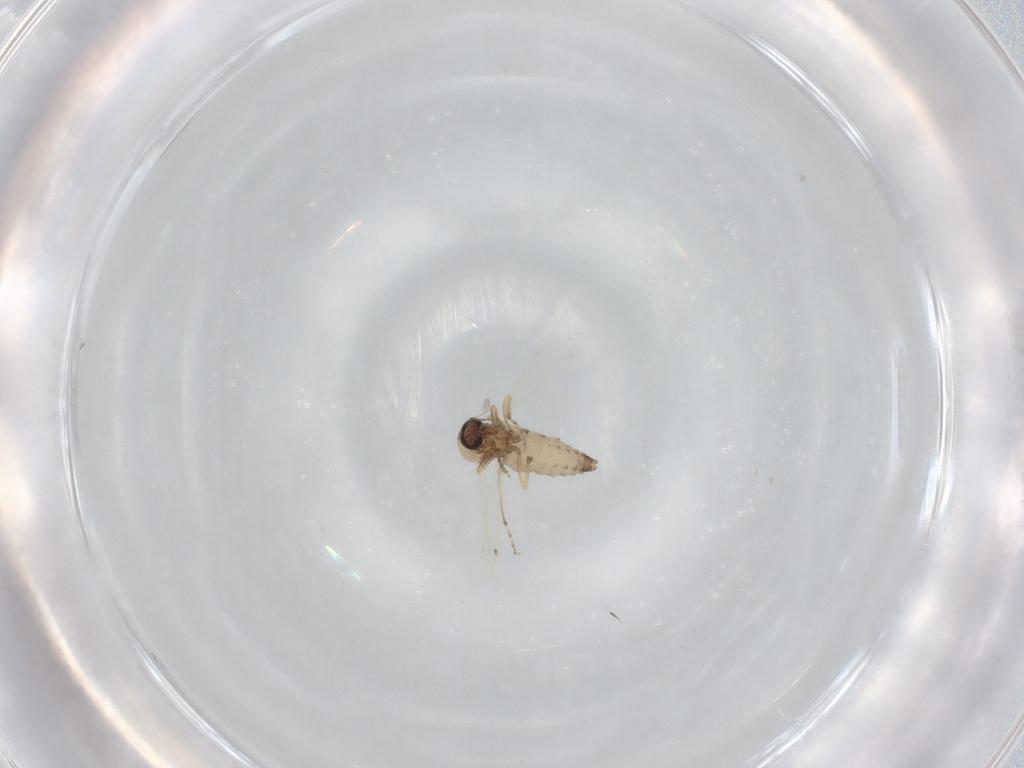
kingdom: Animalia
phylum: Arthropoda
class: Insecta
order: Diptera
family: Ceratopogonidae
